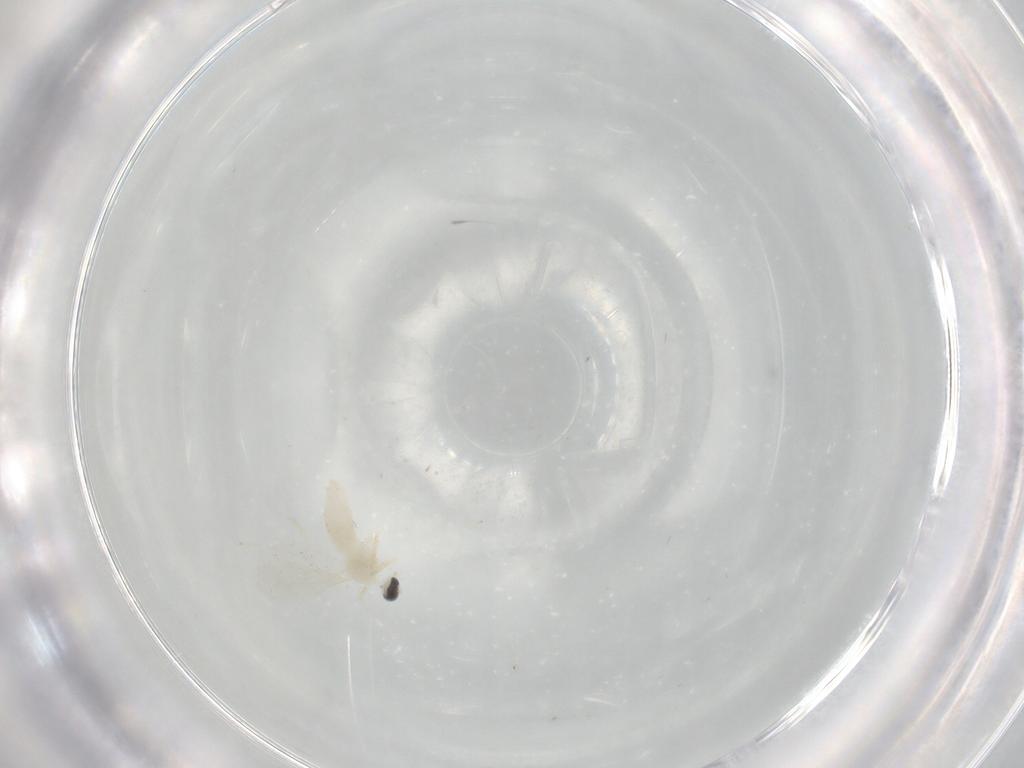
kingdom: Animalia
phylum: Arthropoda
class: Insecta
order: Diptera
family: Cecidomyiidae
